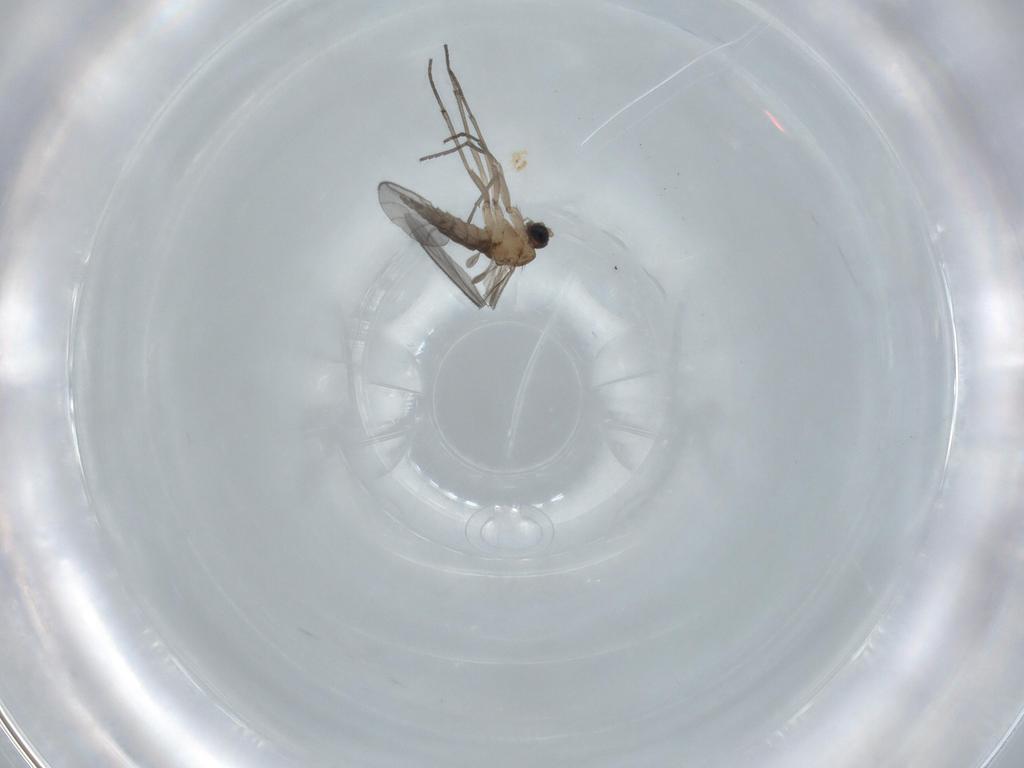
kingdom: Animalia
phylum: Arthropoda
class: Insecta
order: Diptera
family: Sciaridae
